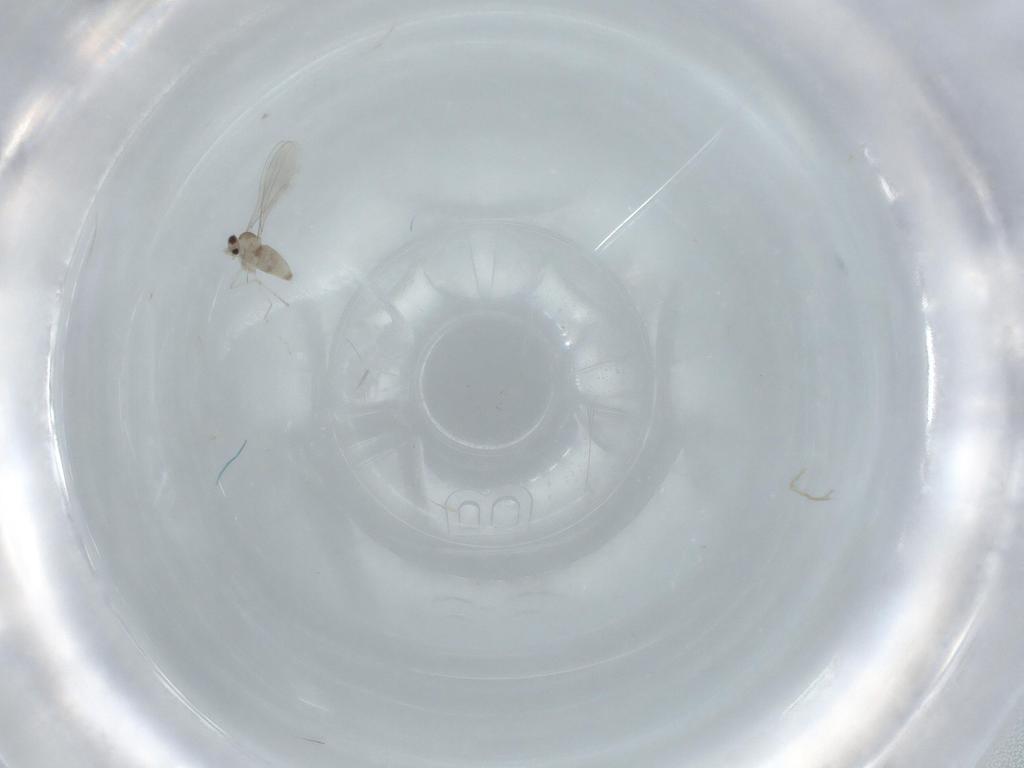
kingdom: Animalia
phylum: Arthropoda
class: Insecta
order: Diptera
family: Cecidomyiidae
